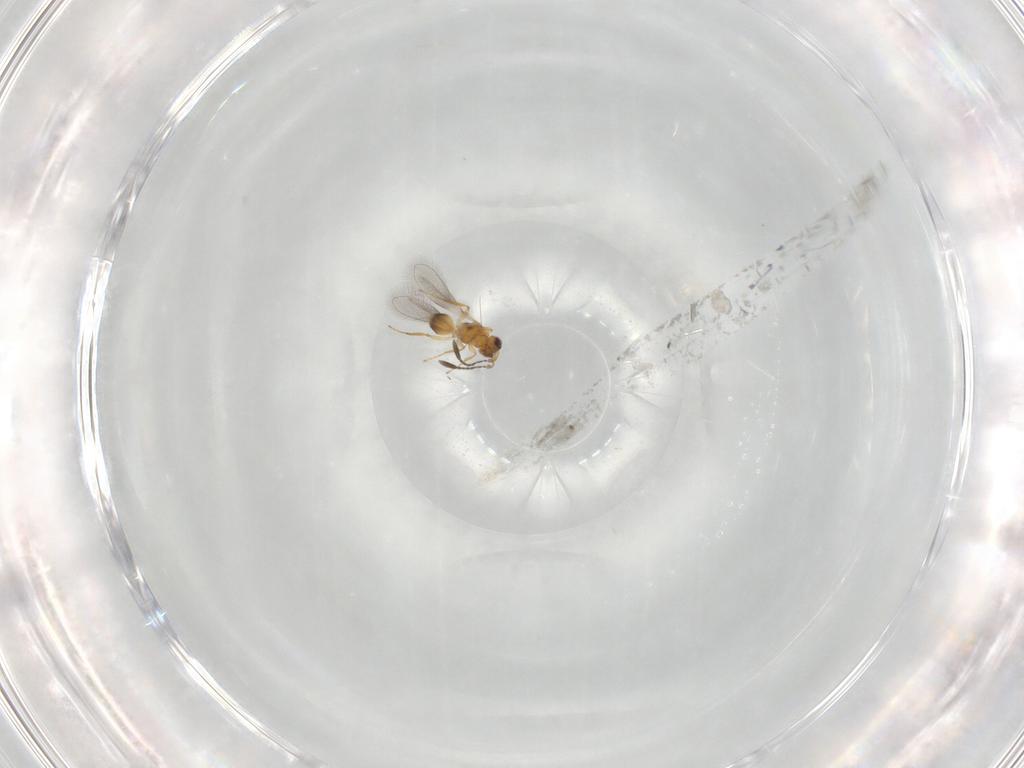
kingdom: Animalia
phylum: Arthropoda
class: Insecta
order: Hymenoptera
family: Mymaridae
